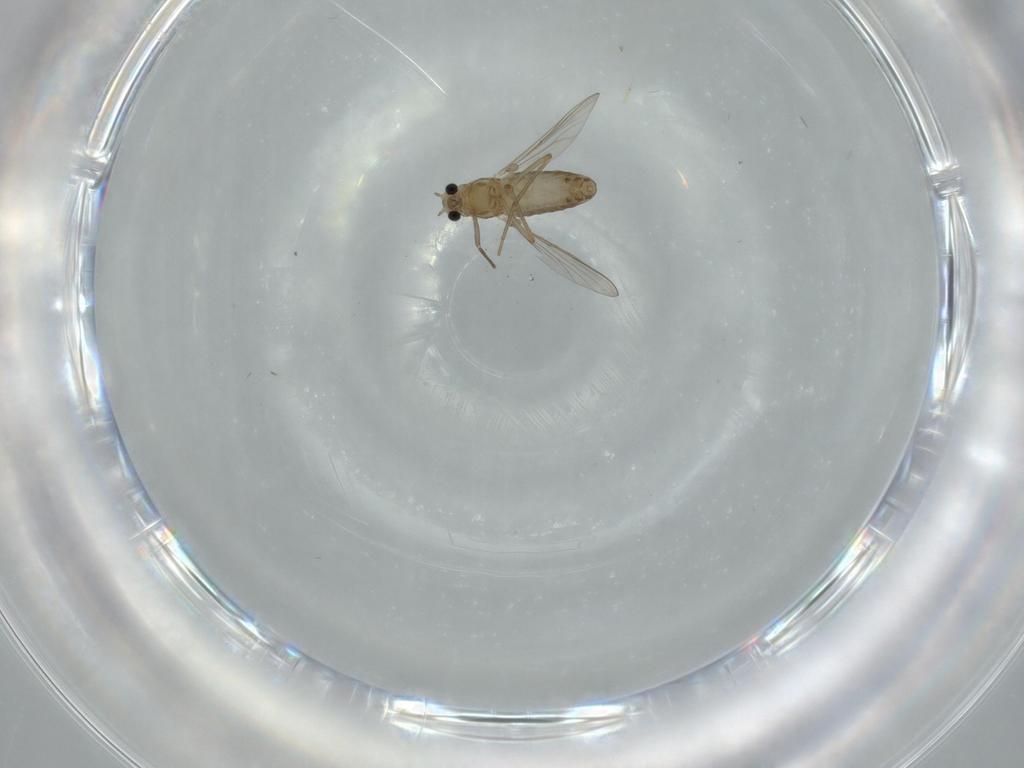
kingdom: Animalia
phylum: Arthropoda
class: Insecta
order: Diptera
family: Chironomidae
